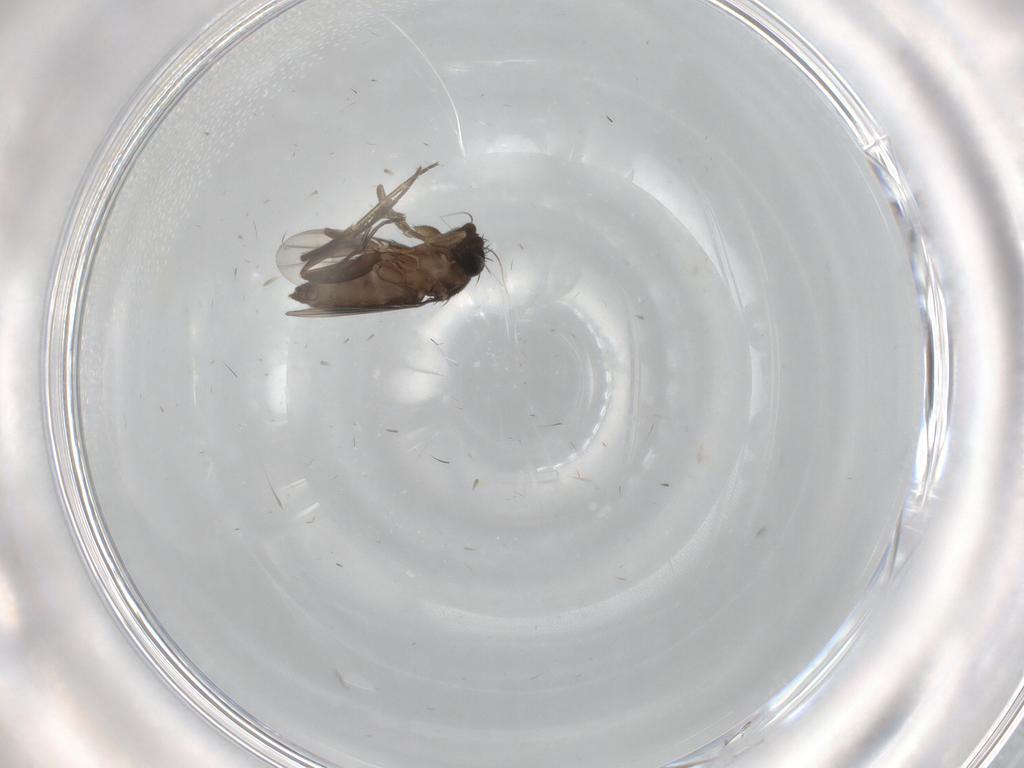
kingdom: Animalia
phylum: Arthropoda
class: Insecta
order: Diptera
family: Phoridae
